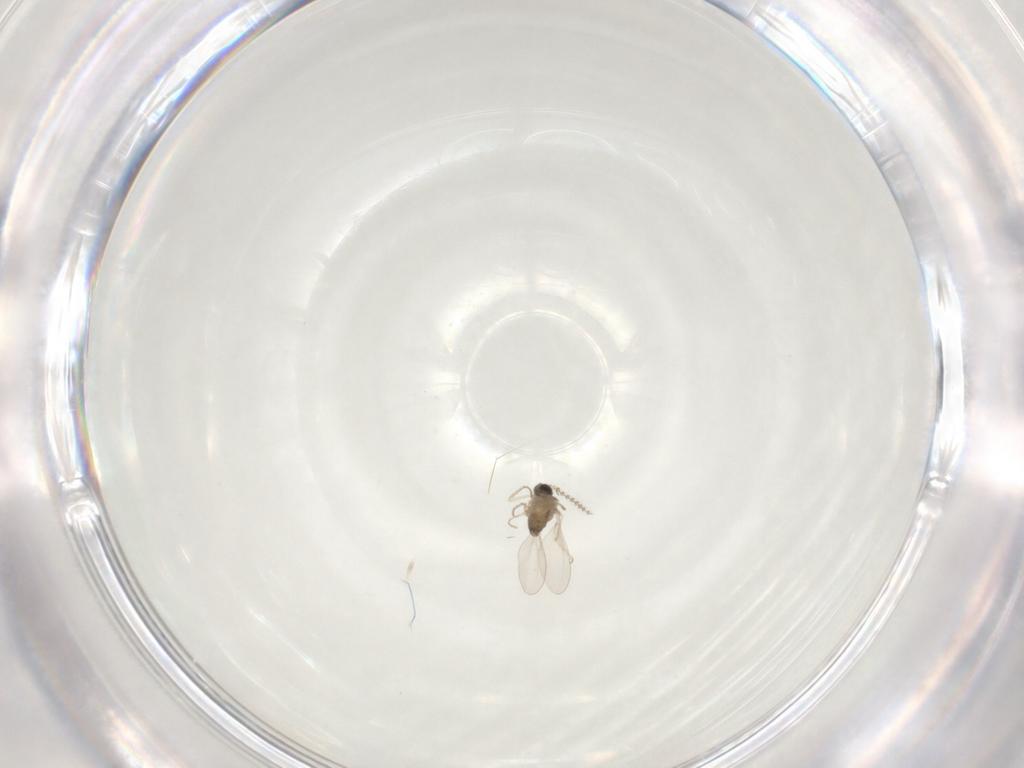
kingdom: Animalia
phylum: Arthropoda
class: Insecta
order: Diptera
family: Cecidomyiidae
